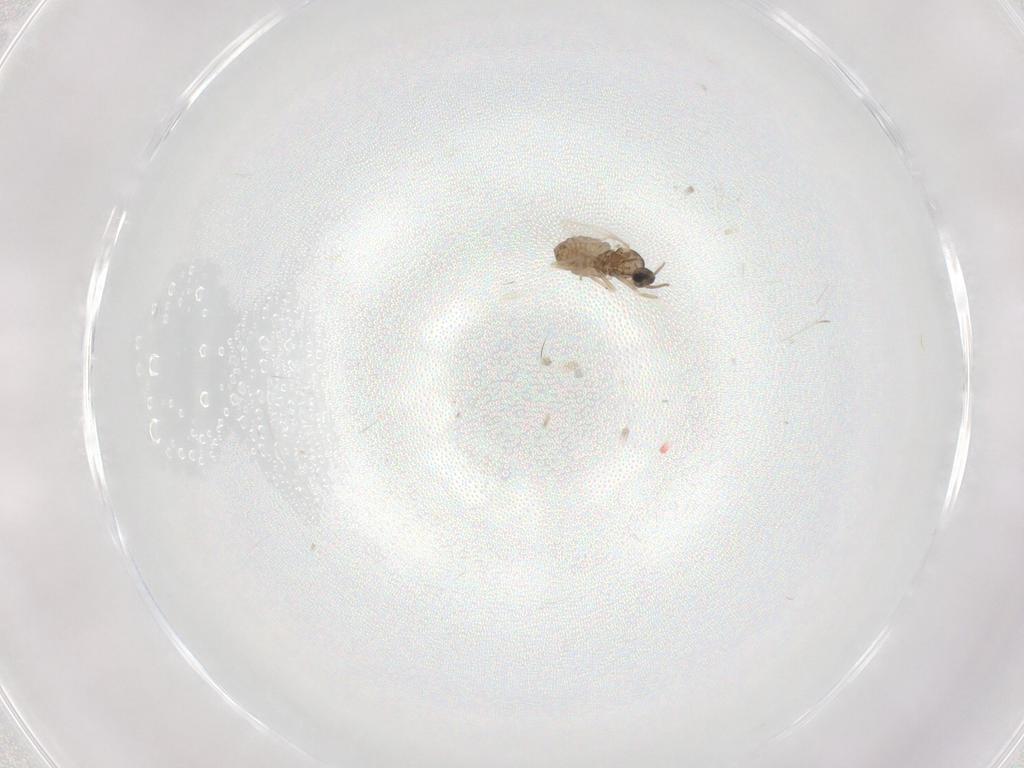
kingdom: Animalia
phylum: Arthropoda
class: Insecta
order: Diptera
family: Cecidomyiidae
